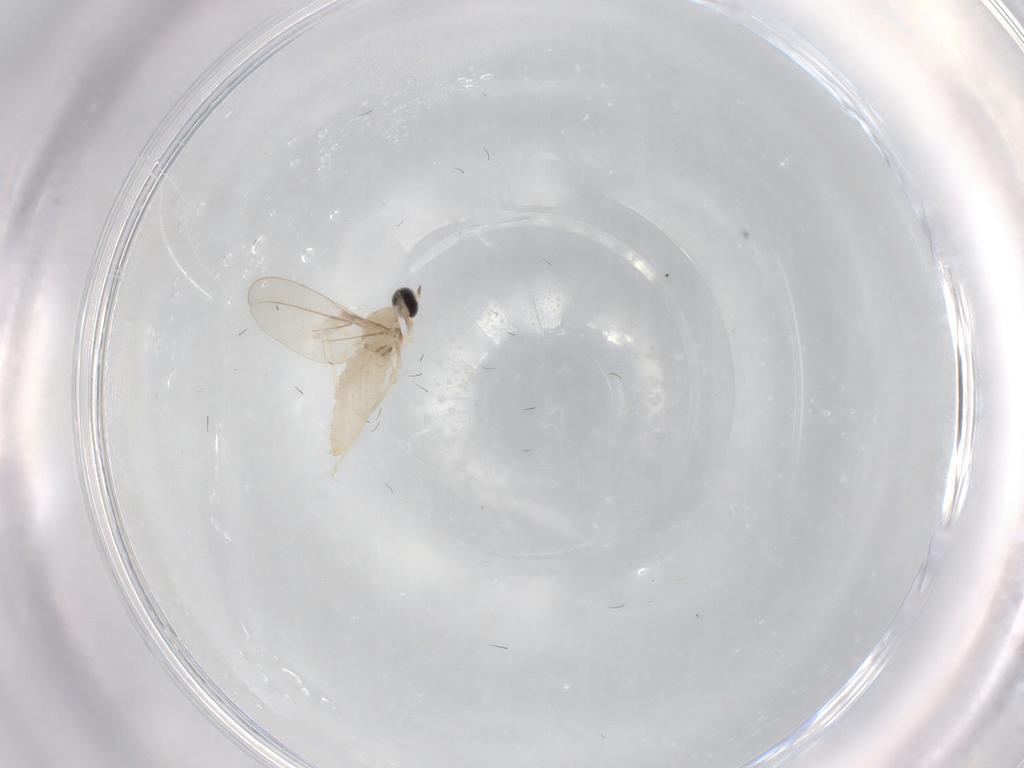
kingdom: Animalia
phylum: Arthropoda
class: Insecta
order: Diptera
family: Cecidomyiidae
